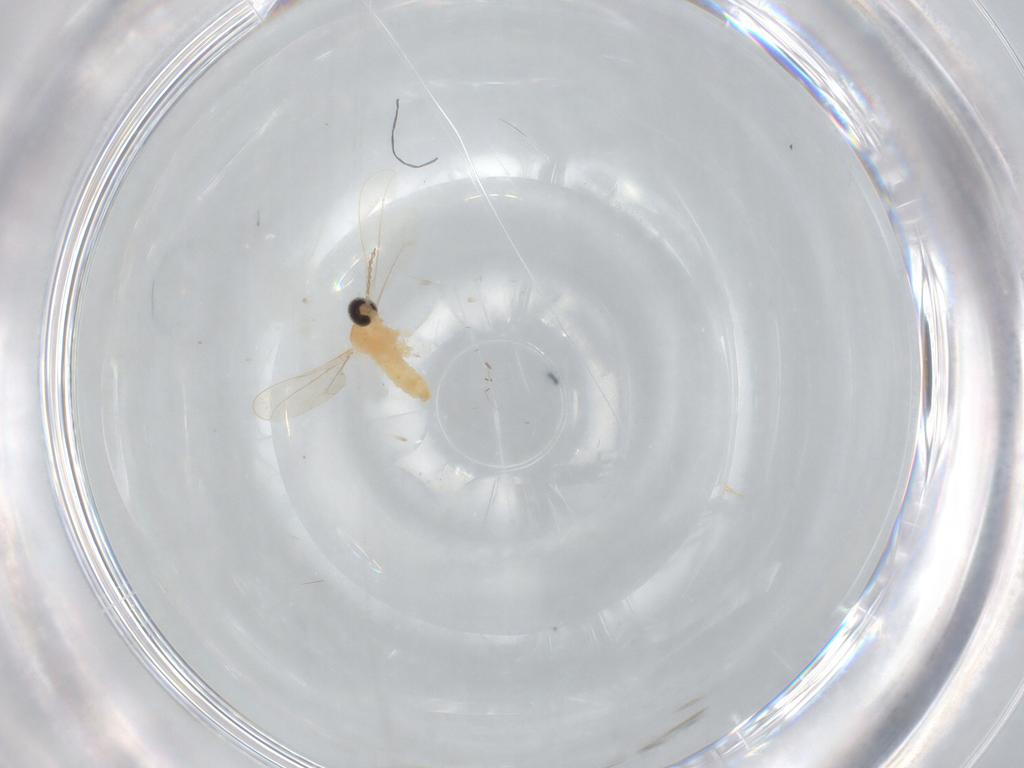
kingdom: Animalia
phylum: Arthropoda
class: Insecta
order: Diptera
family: Cecidomyiidae
